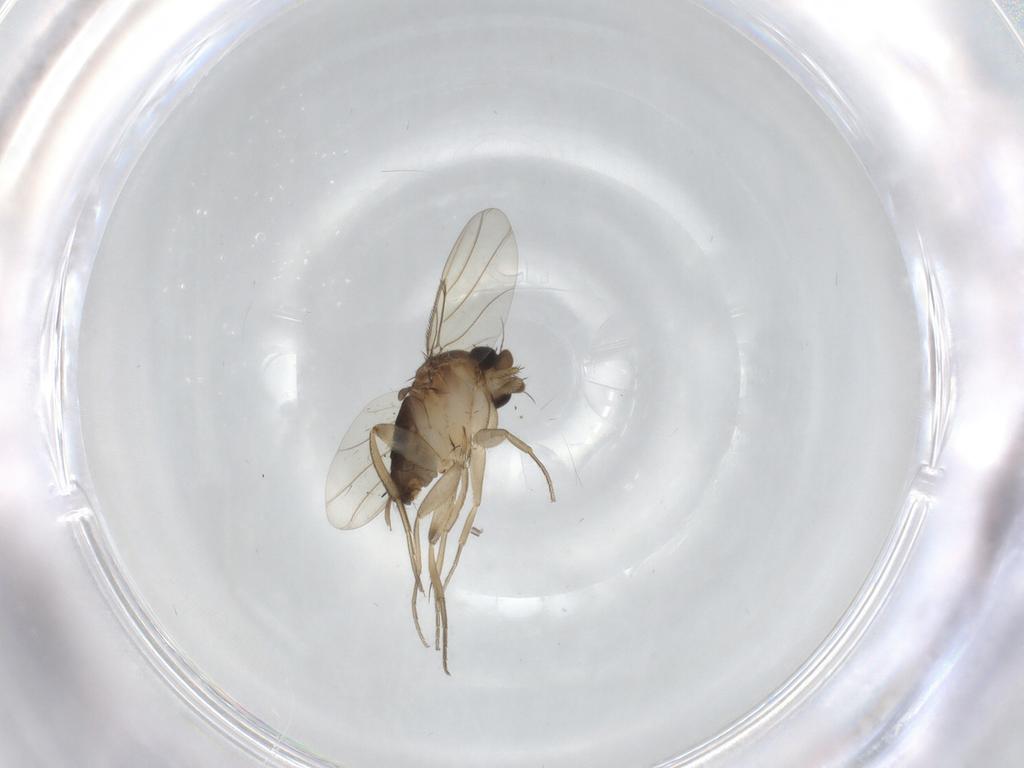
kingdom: Animalia
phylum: Arthropoda
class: Insecta
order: Diptera
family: Phoridae
